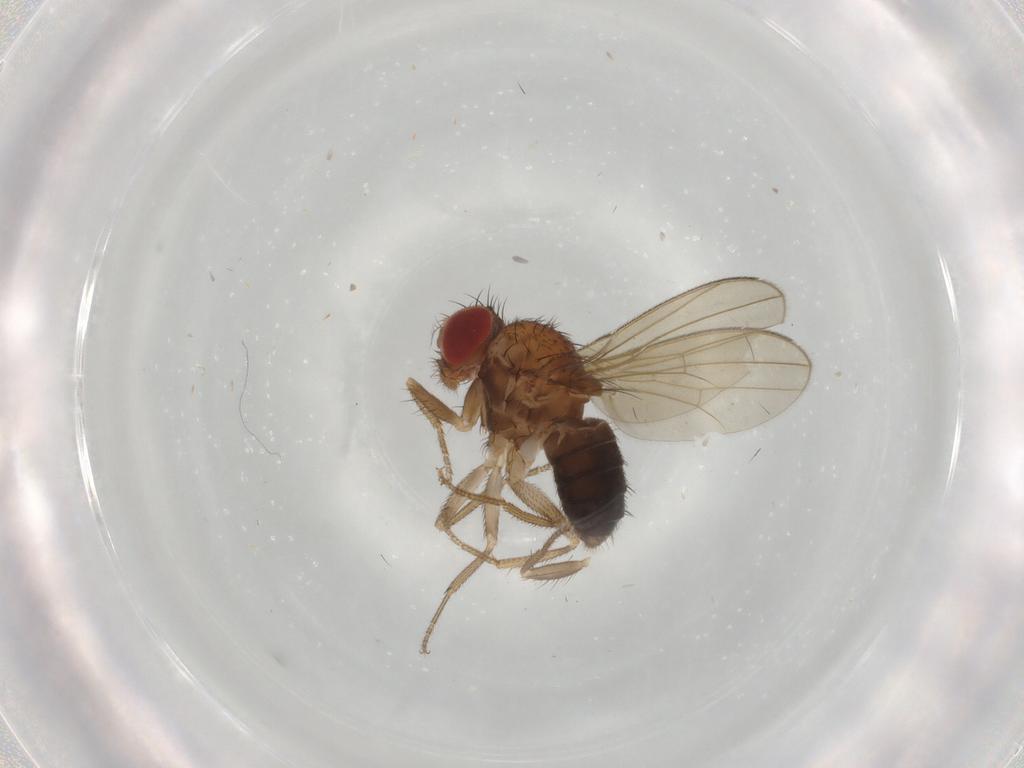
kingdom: Animalia
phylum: Arthropoda
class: Insecta
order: Diptera
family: Drosophilidae
